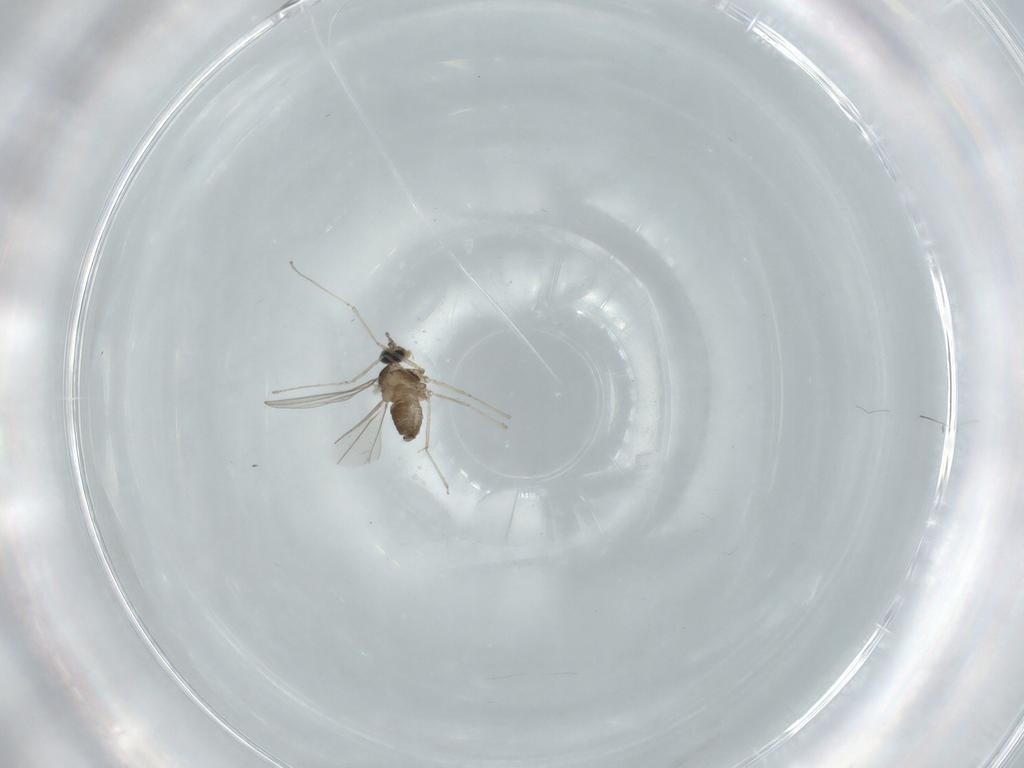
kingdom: Animalia
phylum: Arthropoda
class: Insecta
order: Diptera
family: Cecidomyiidae
